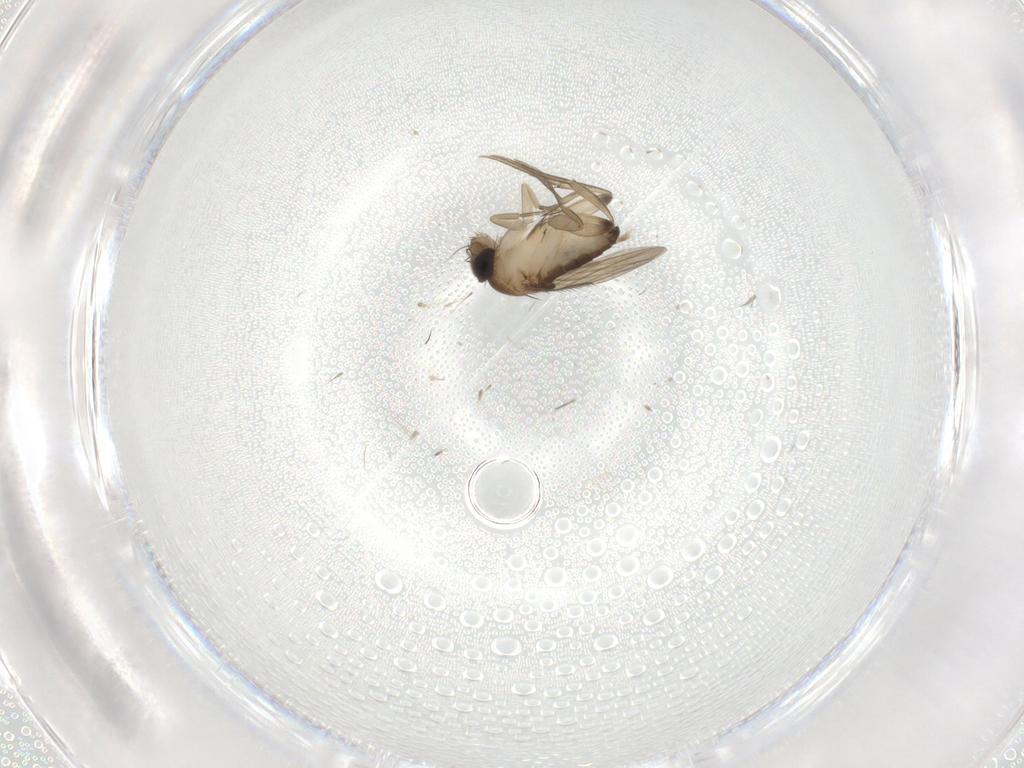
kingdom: Animalia
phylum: Arthropoda
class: Insecta
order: Diptera
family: Phoridae
